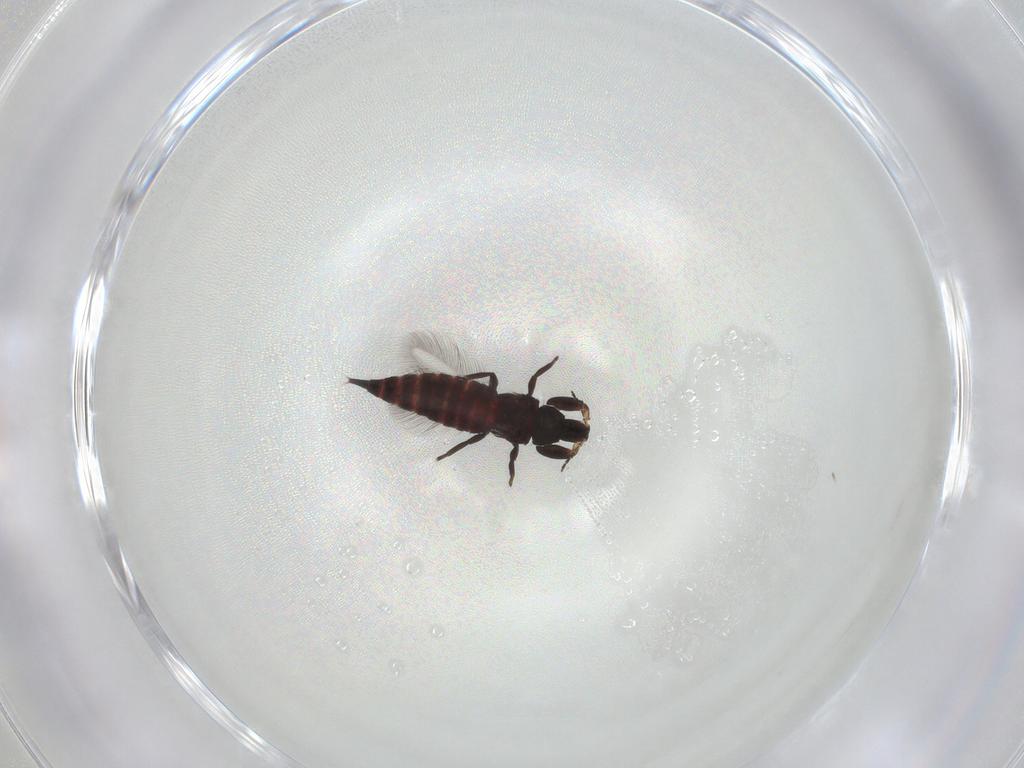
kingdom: Animalia
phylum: Arthropoda
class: Insecta
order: Thysanoptera
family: Phlaeothripidae
